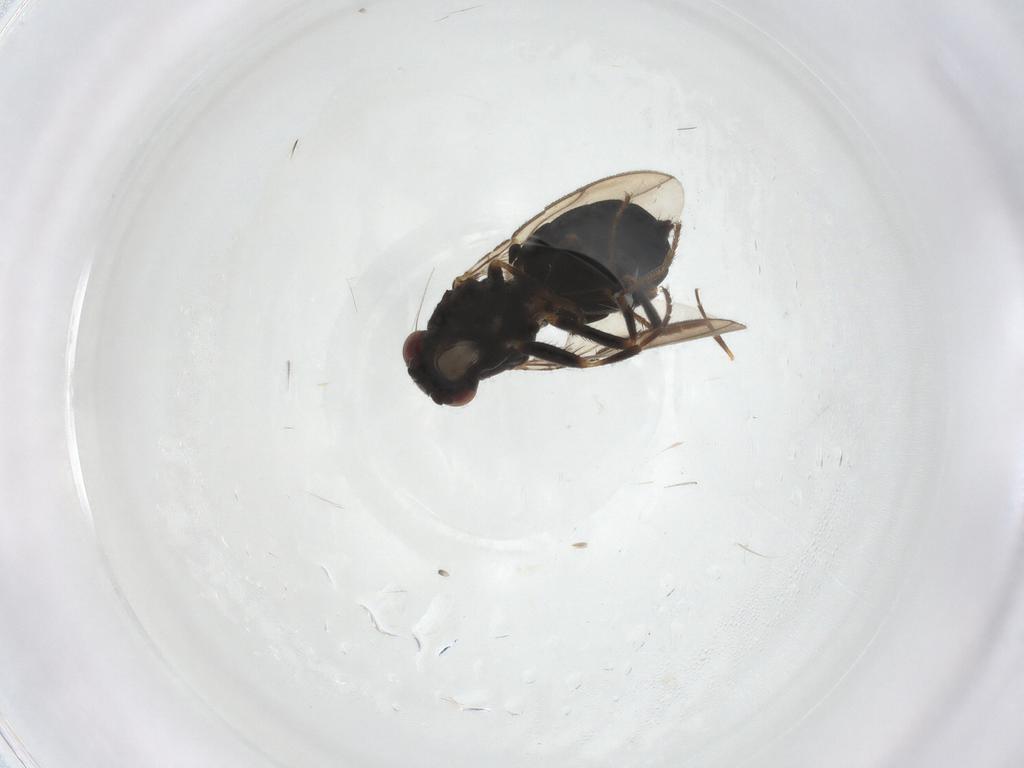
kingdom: Animalia
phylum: Arthropoda
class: Insecta
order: Diptera
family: Sphaeroceridae
